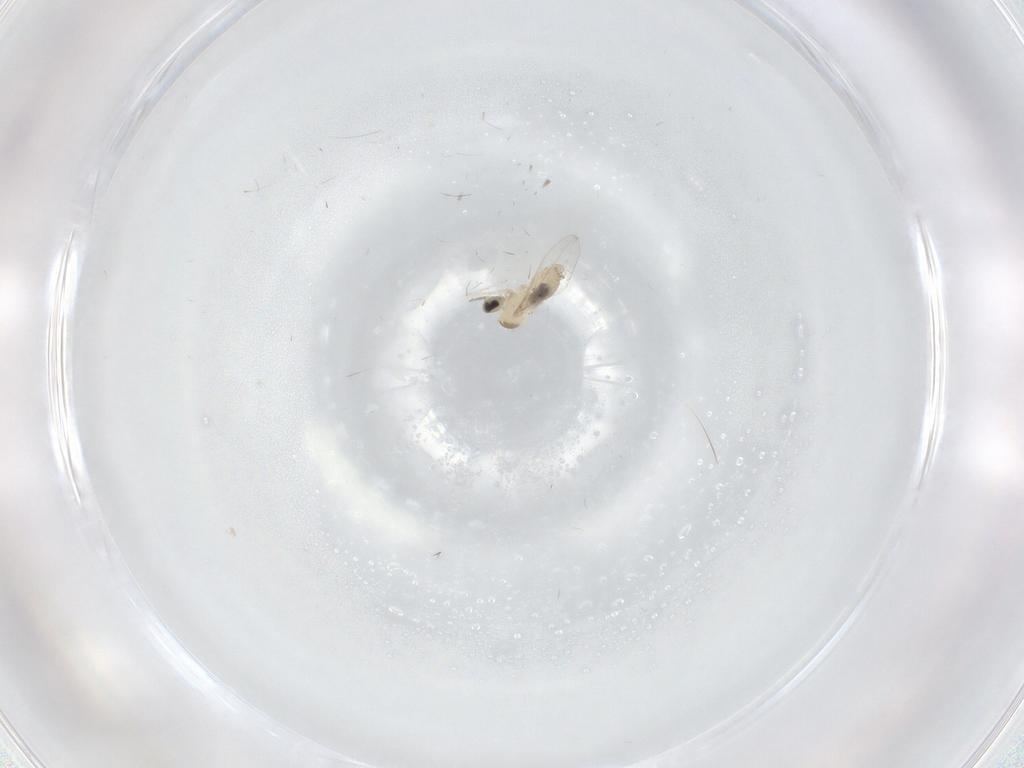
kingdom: Animalia
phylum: Arthropoda
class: Insecta
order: Diptera
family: Cecidomyiidae
